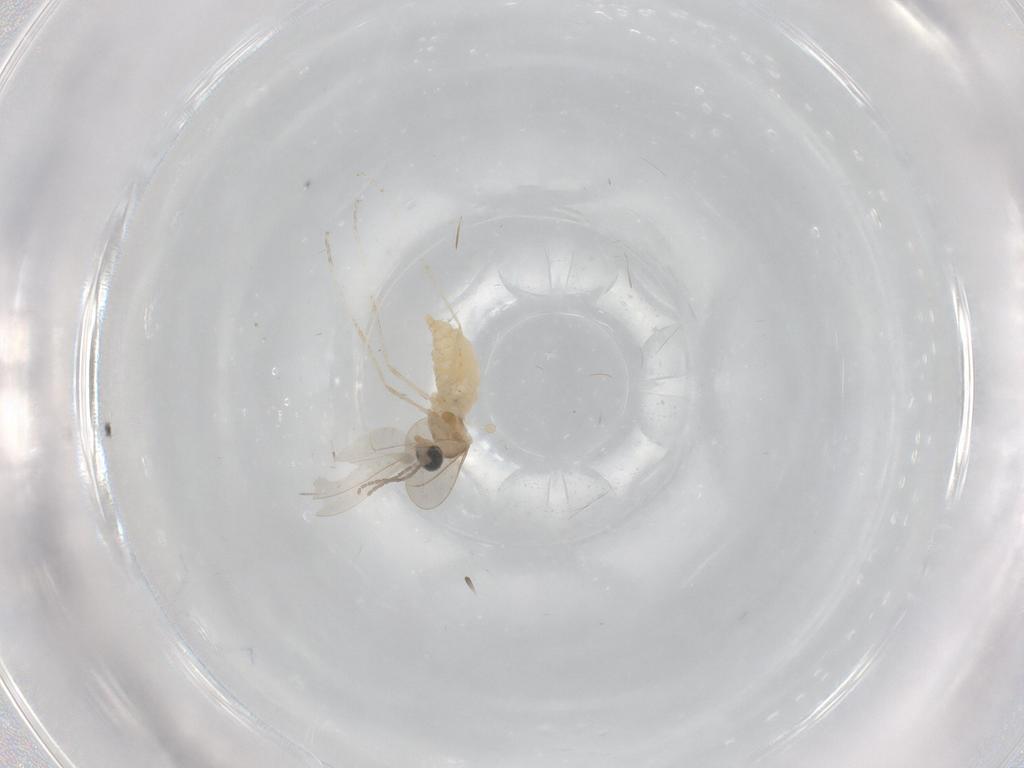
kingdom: Animalia
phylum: Arthropoda
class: Insecta
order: Diptera
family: Cecidomyiidae
